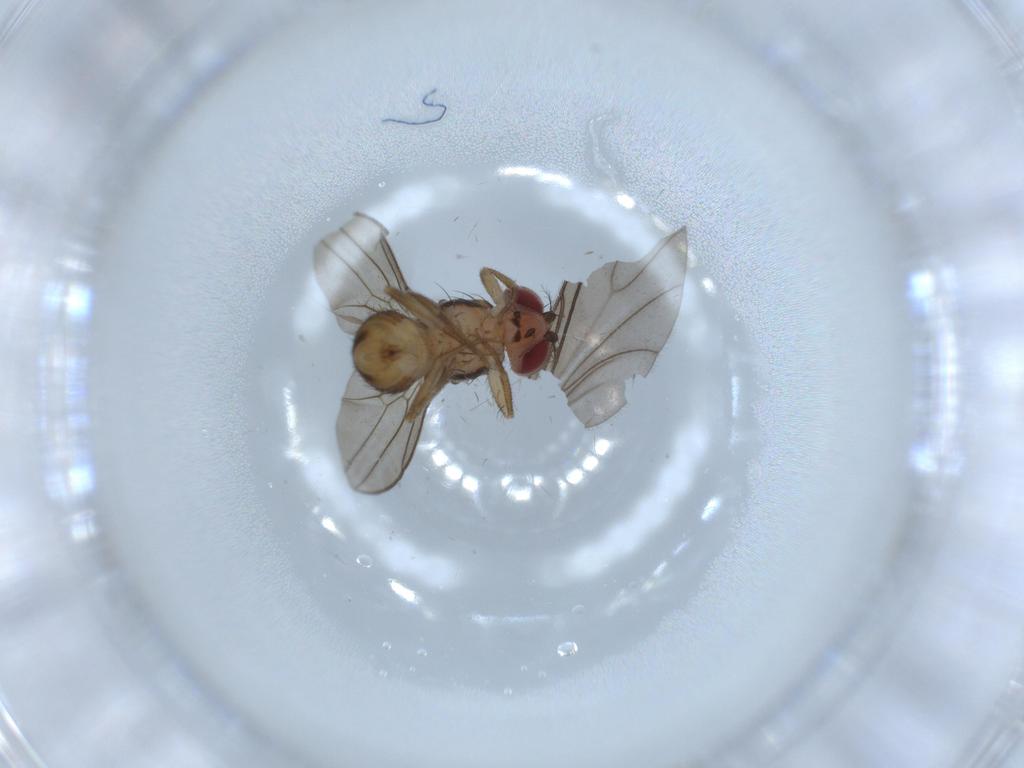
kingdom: Animalia
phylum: Arthropoda
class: Insecta
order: Diptera
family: Drosophilidae
